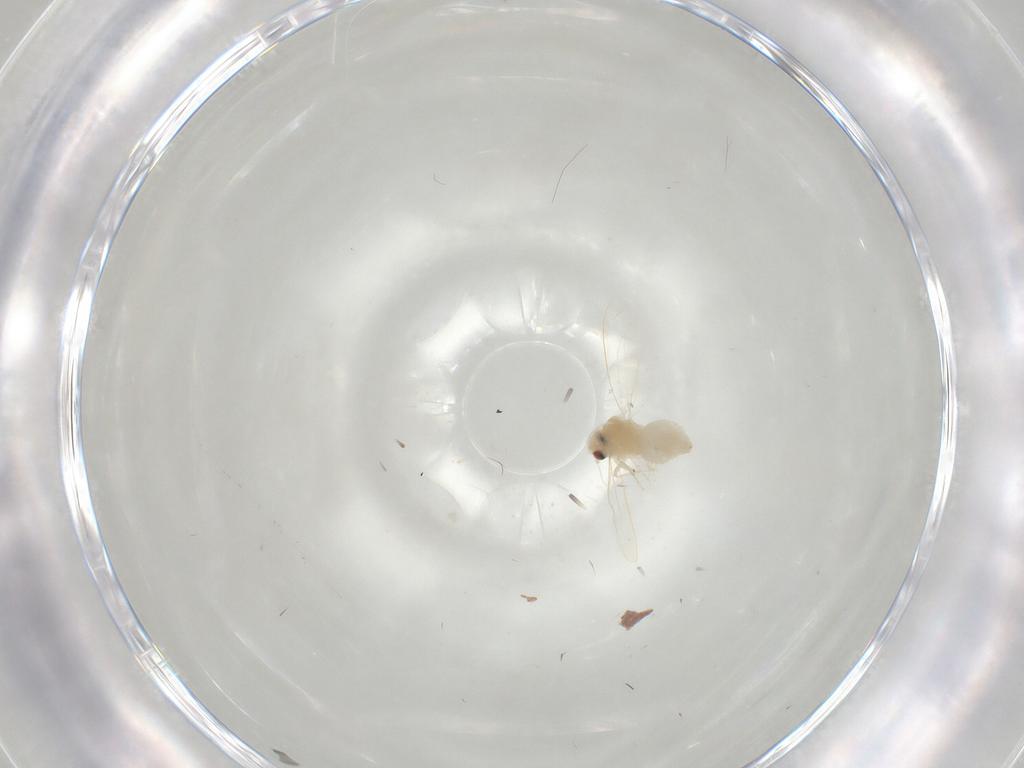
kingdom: Animalia
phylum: Arthropoda
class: Insecta
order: Hemiptera
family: Aleyrodidae
